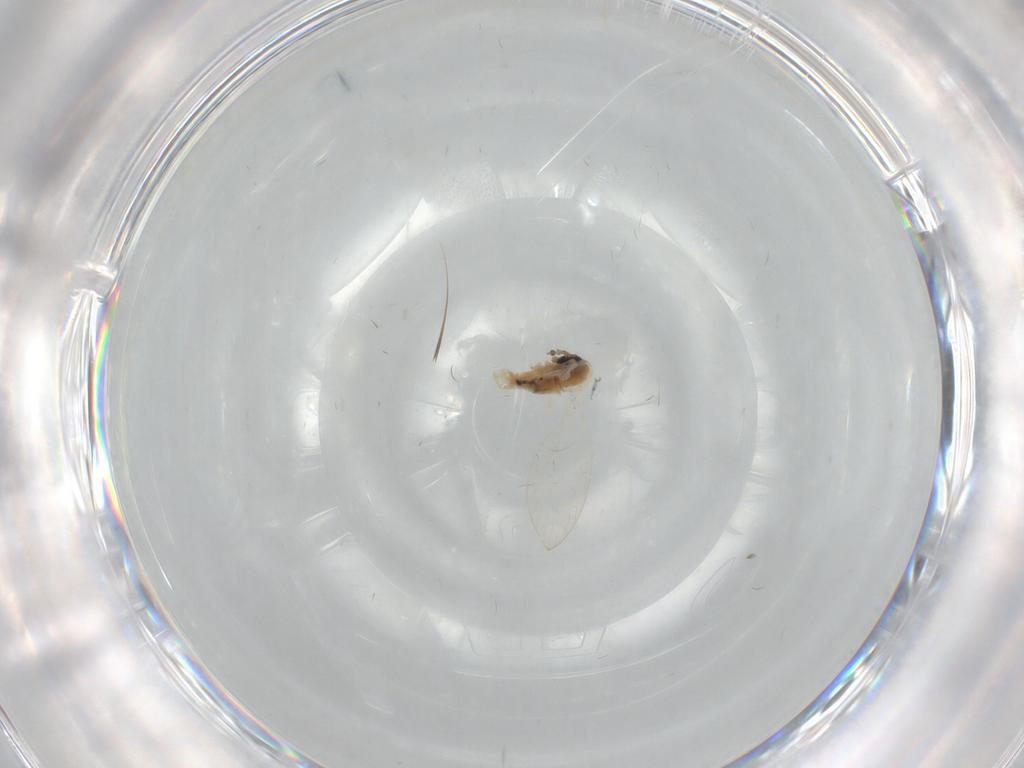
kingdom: Animalia
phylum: Arthropoda
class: Insecta
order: Diptera
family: Psychodidae
